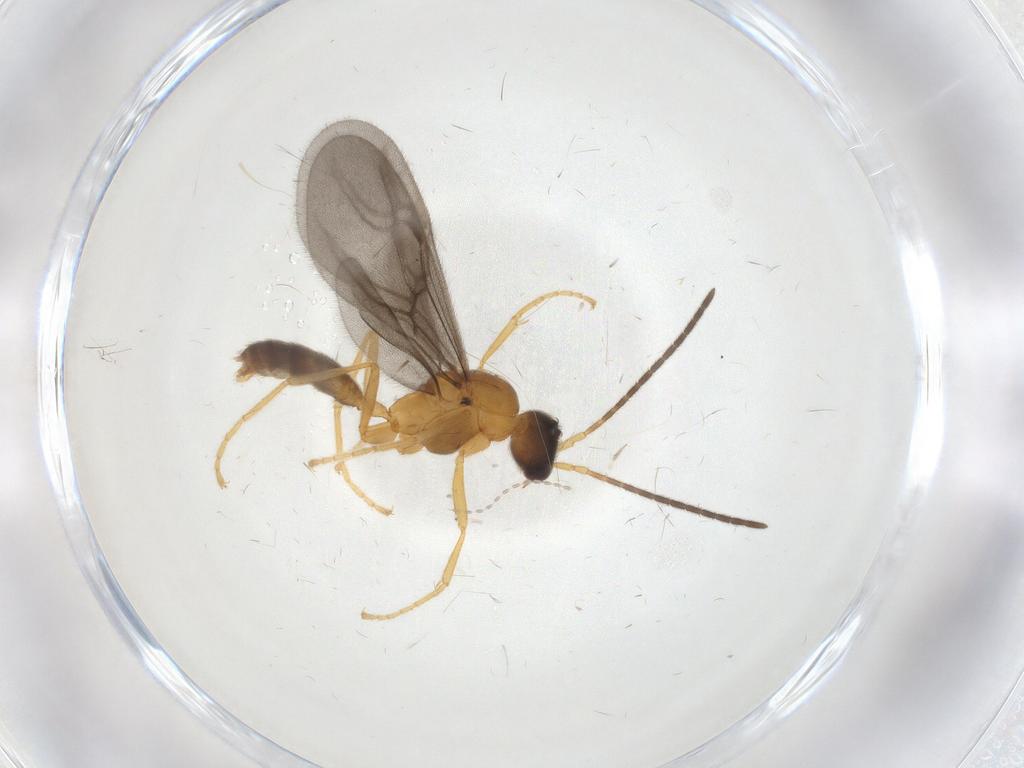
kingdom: Animalia
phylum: Arthropoda
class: Insecta
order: Hymenoptera
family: Formicidae
